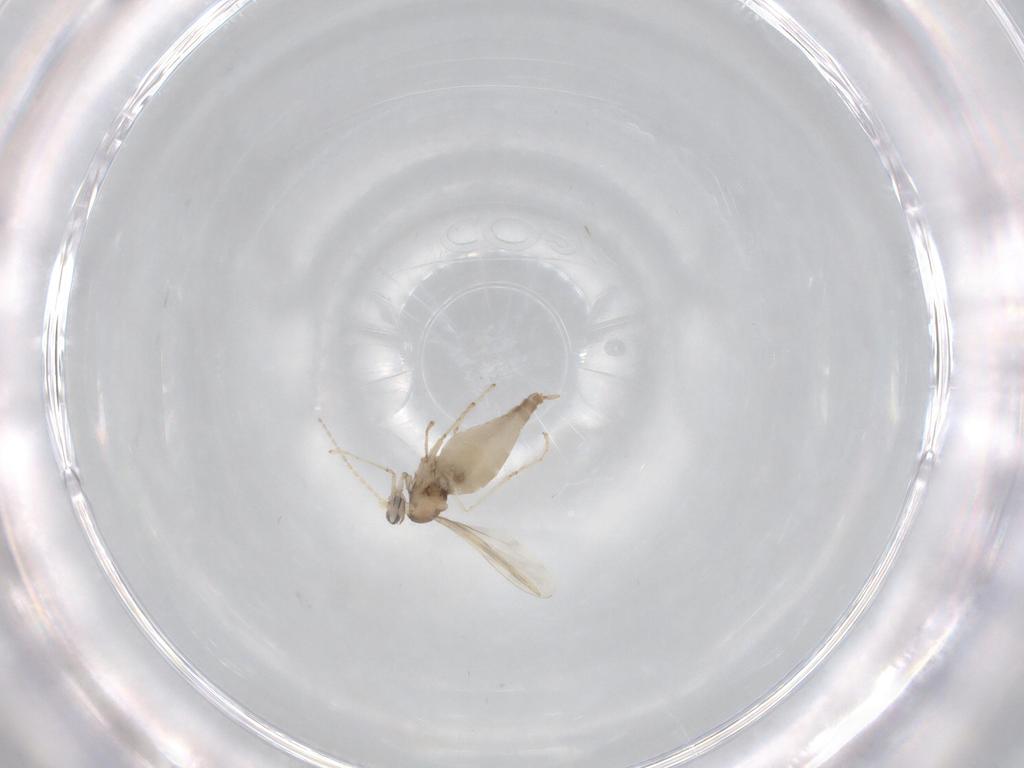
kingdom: Animalia
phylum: Arthropoda
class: Insecta
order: Diptera
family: Cecidomyiidae
